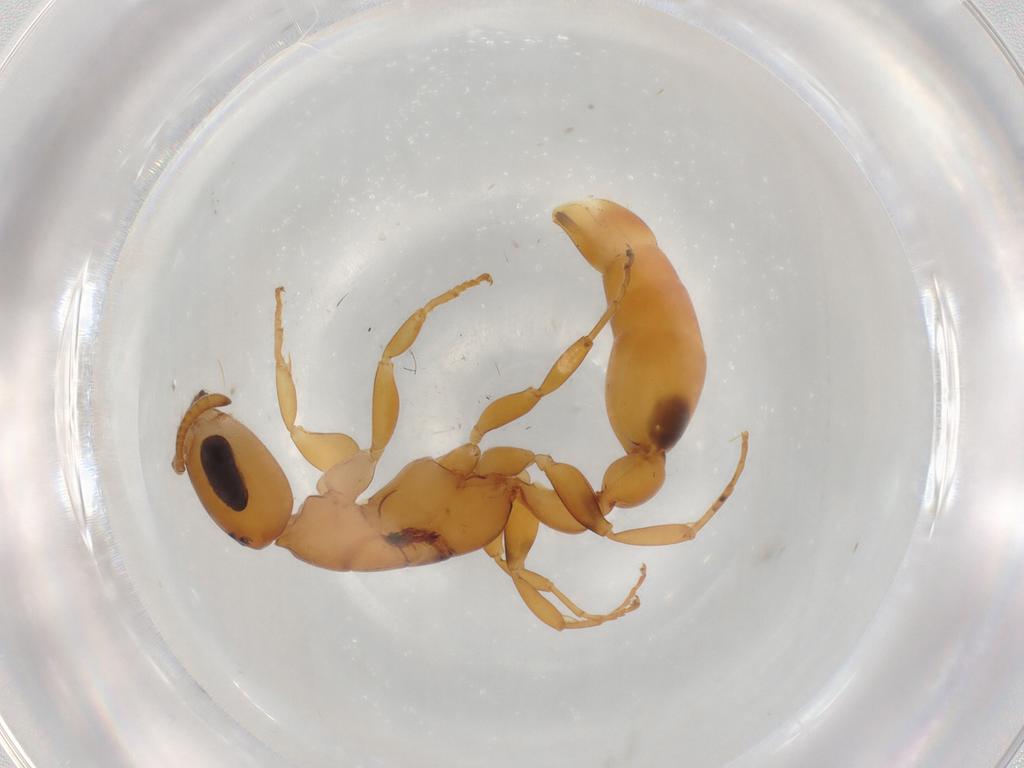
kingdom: Animalia
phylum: Arthropoda
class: Insecta
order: Hymenoptera
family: Formicidae
